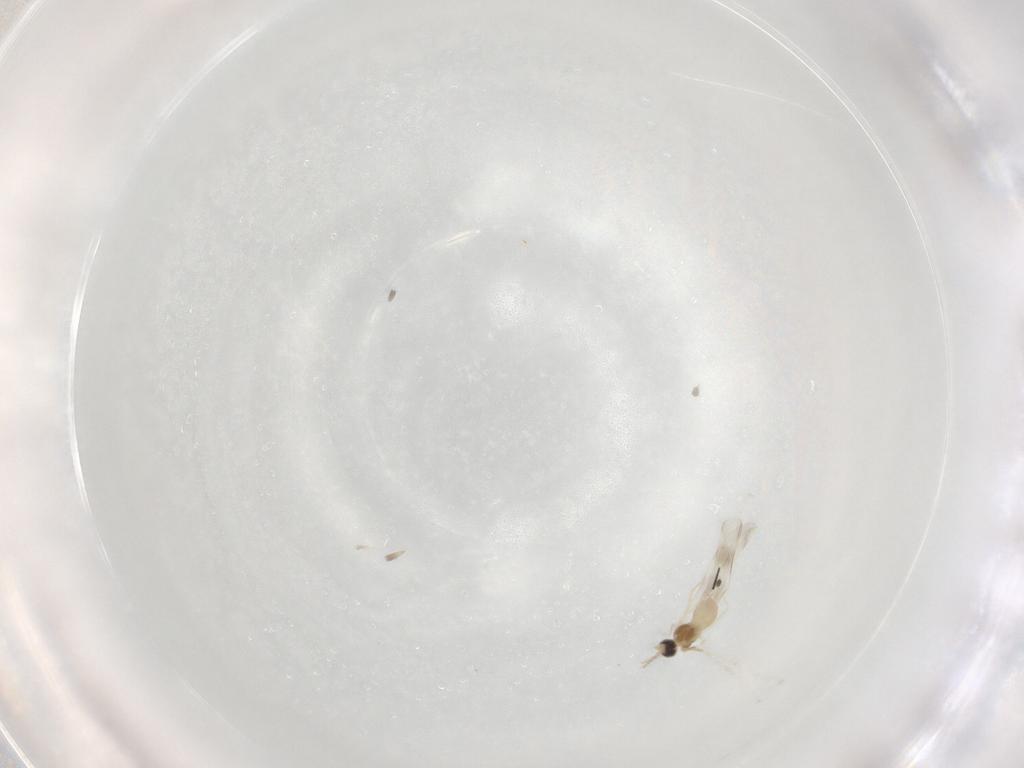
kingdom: Animalia
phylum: Arthropoda
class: Insecta
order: Diptera
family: Cecidomyiidae
